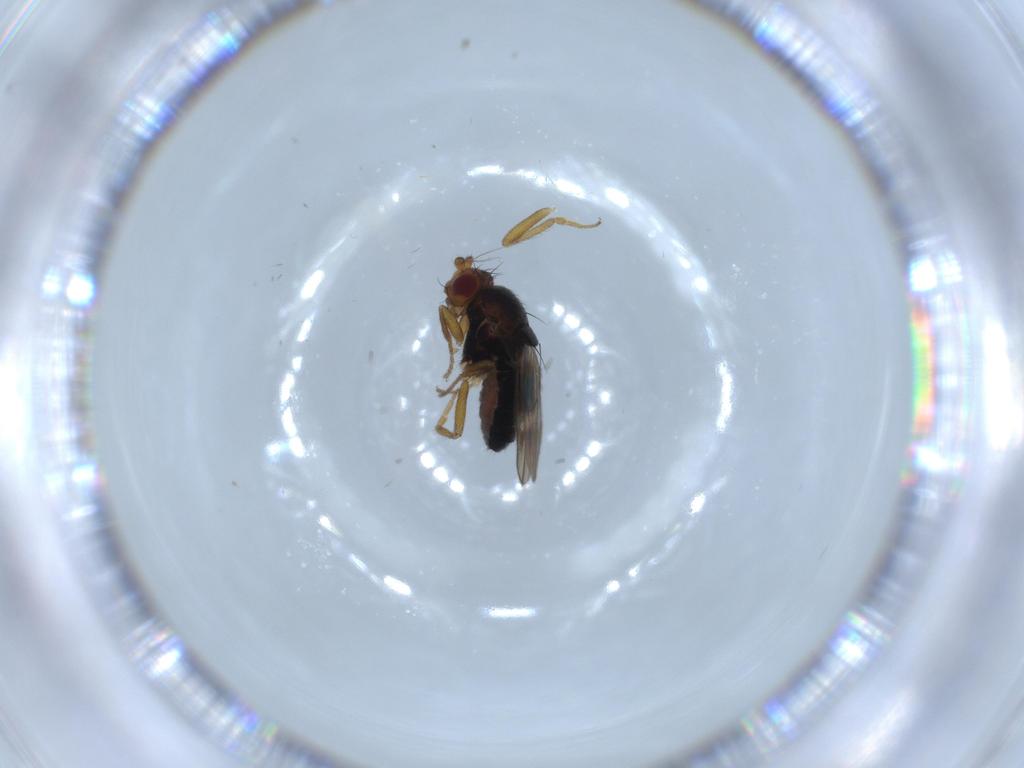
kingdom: Animalia
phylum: Arthropoda
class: Insecta
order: Diptera
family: Sphaeroceridae
